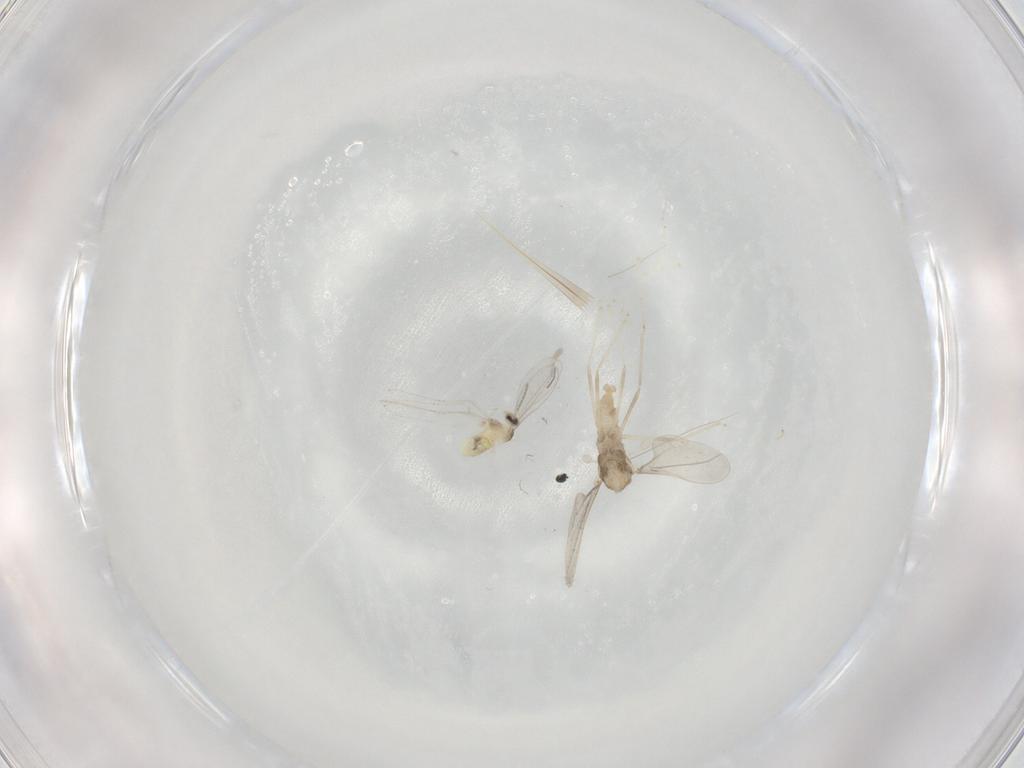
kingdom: Animalia
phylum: Arthropoda
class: Insecta
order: Diptera
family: Cecidomyiidae
